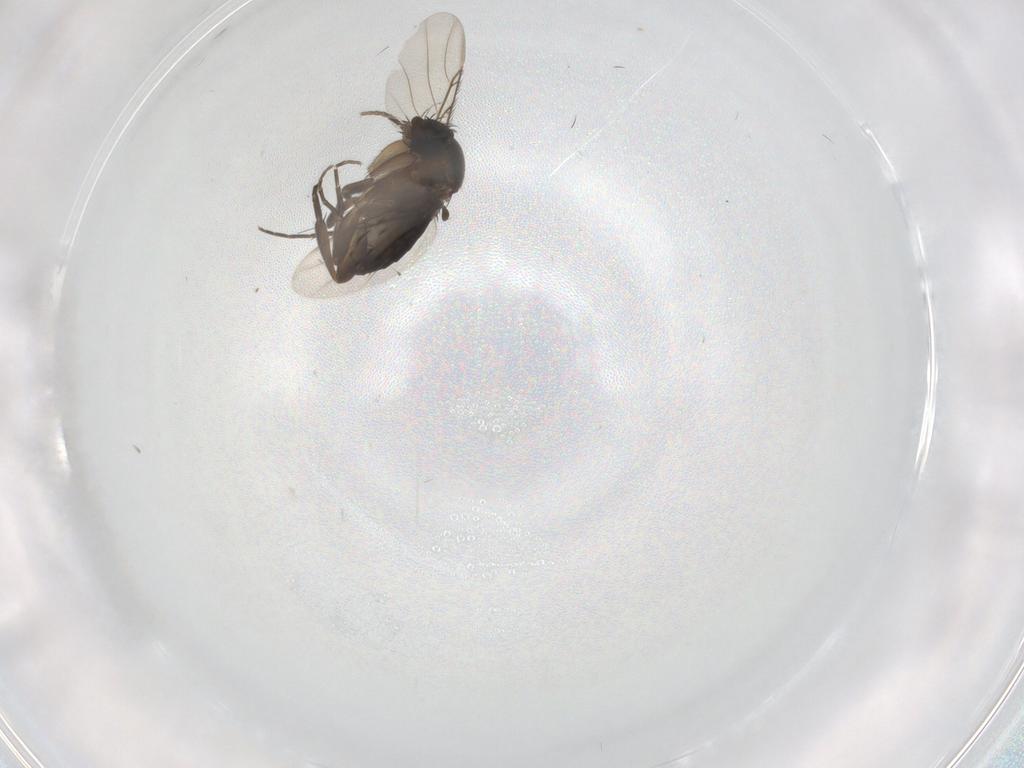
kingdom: Animalia
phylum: Arthropoda
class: Insecta
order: Diptera
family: Phoridae
